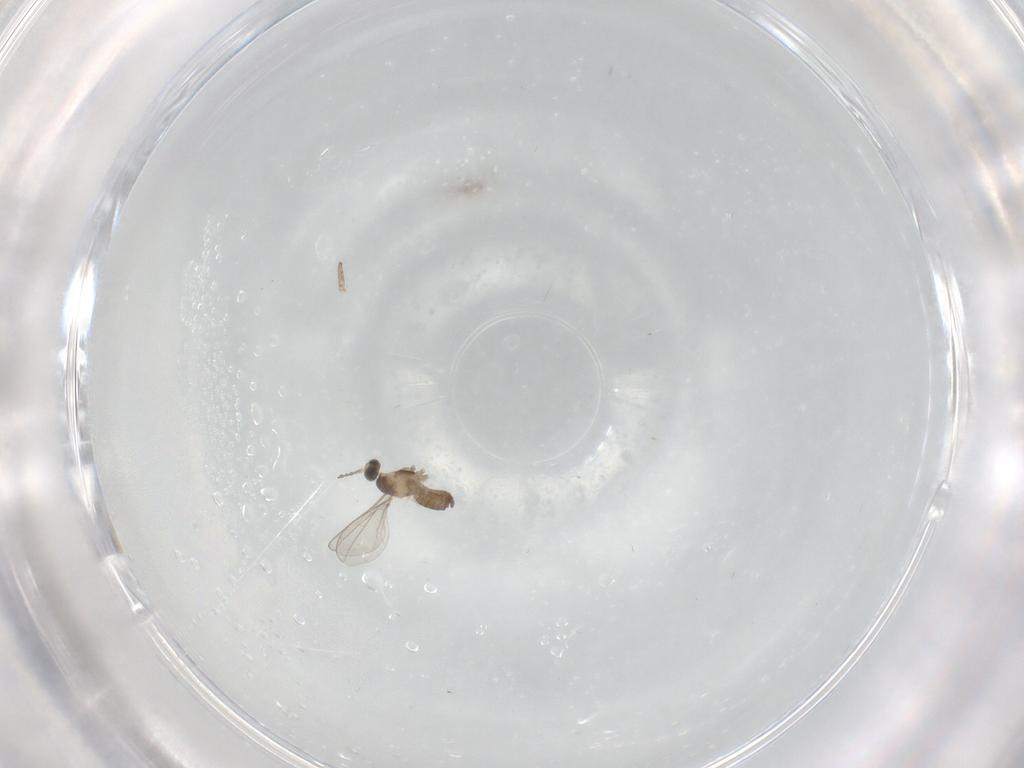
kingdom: Animalia
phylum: Arthropoda
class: Insecta
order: Diptera
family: Cecidomyiidae
